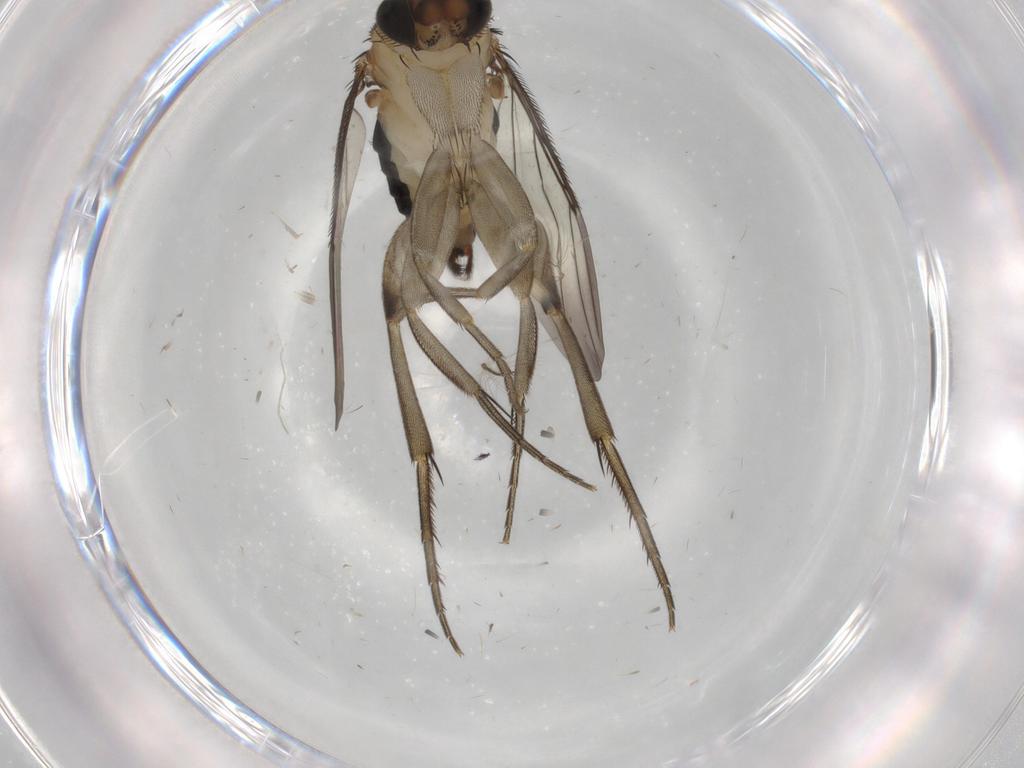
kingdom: Animalia
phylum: Arthropoda
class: Insecta
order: Diptera
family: Phoridae
